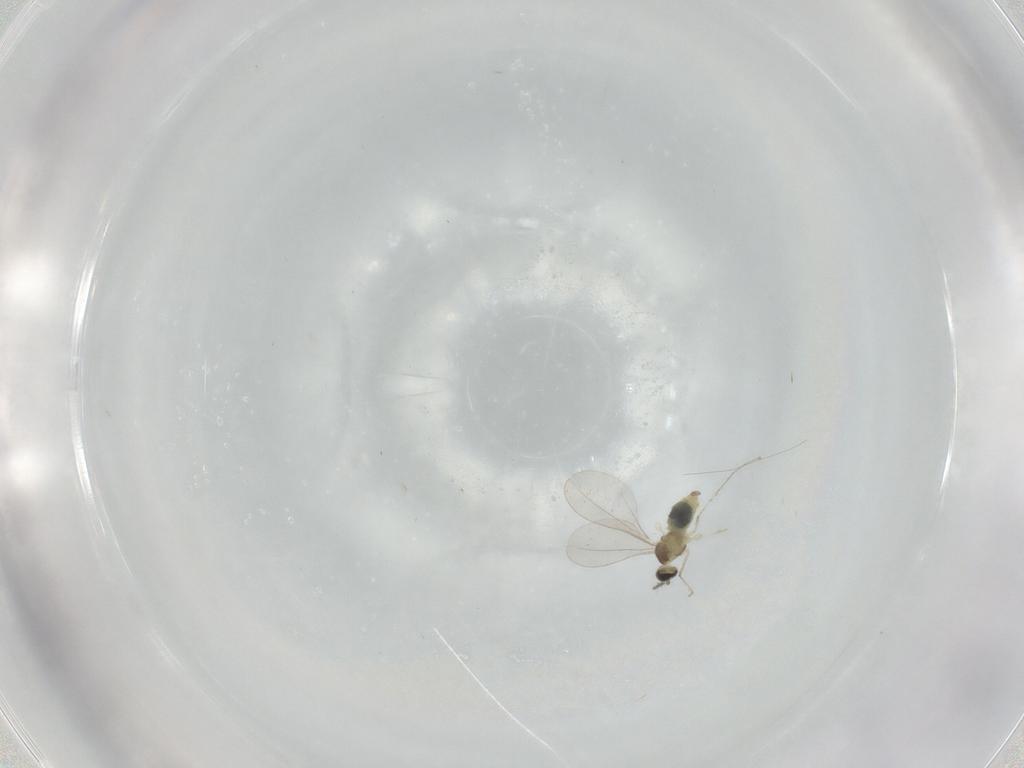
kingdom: Animalia
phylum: Arthropoda
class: Insecta
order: Diptera
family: Cecidomyiidae
